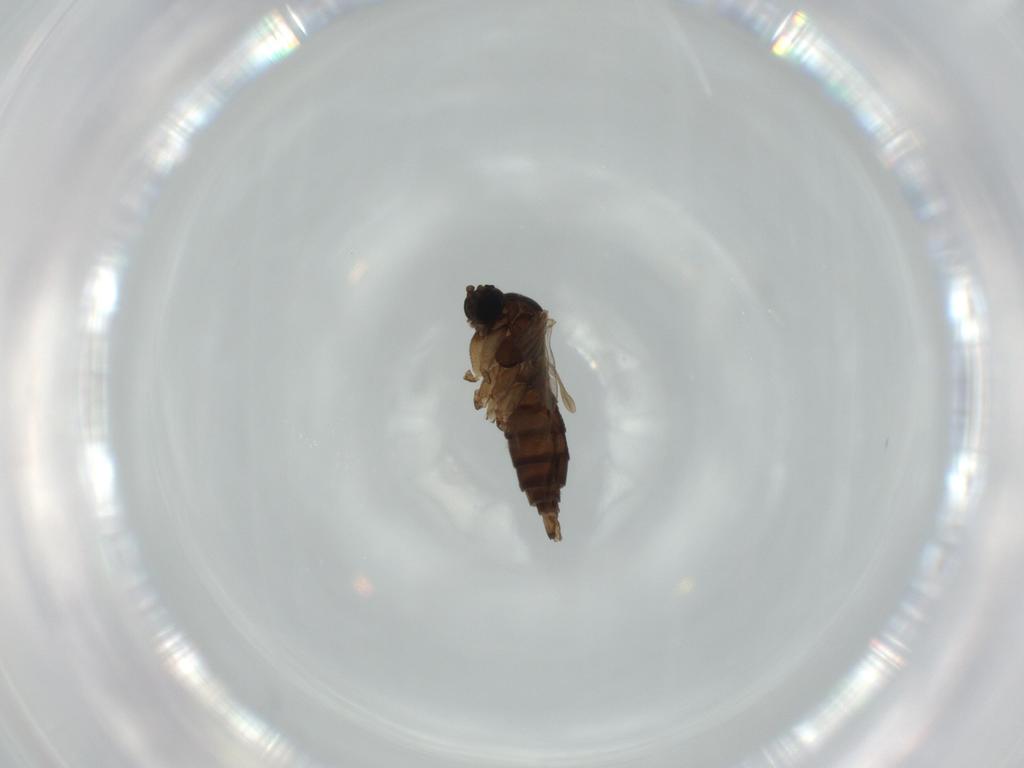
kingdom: Animalia
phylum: Arthropoda
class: Insecta
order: Diptera
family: Sciaridae
